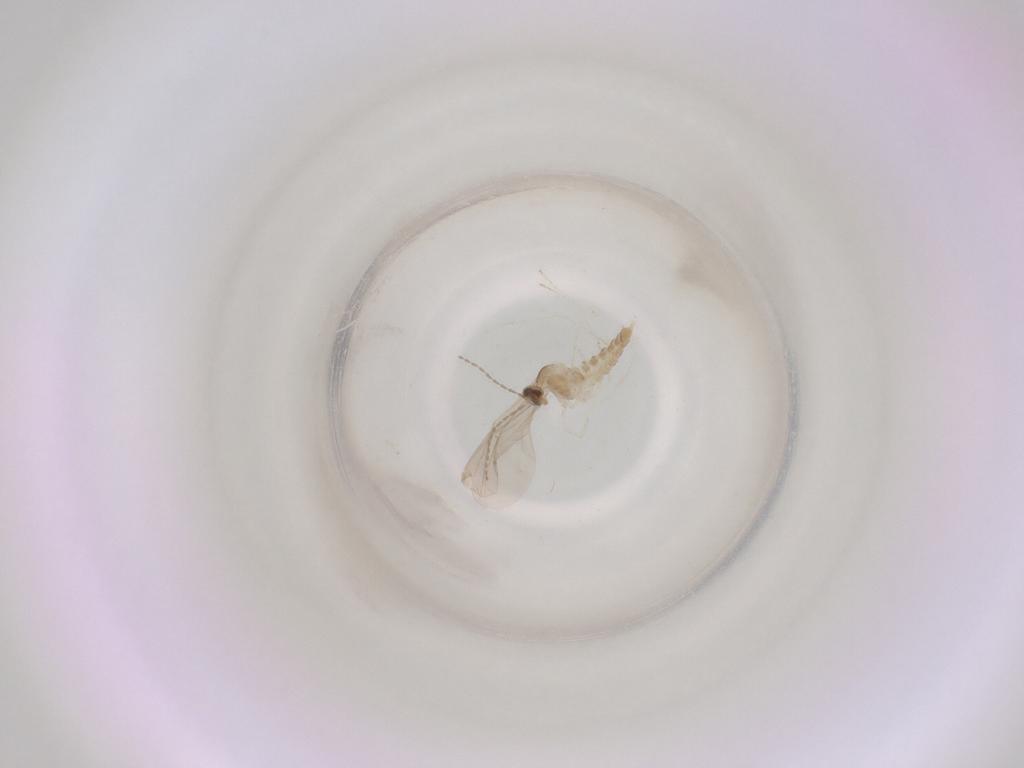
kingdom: Animalia
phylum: Arthropoda
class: Insecta
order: Diptera
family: Cecidomyiidae
